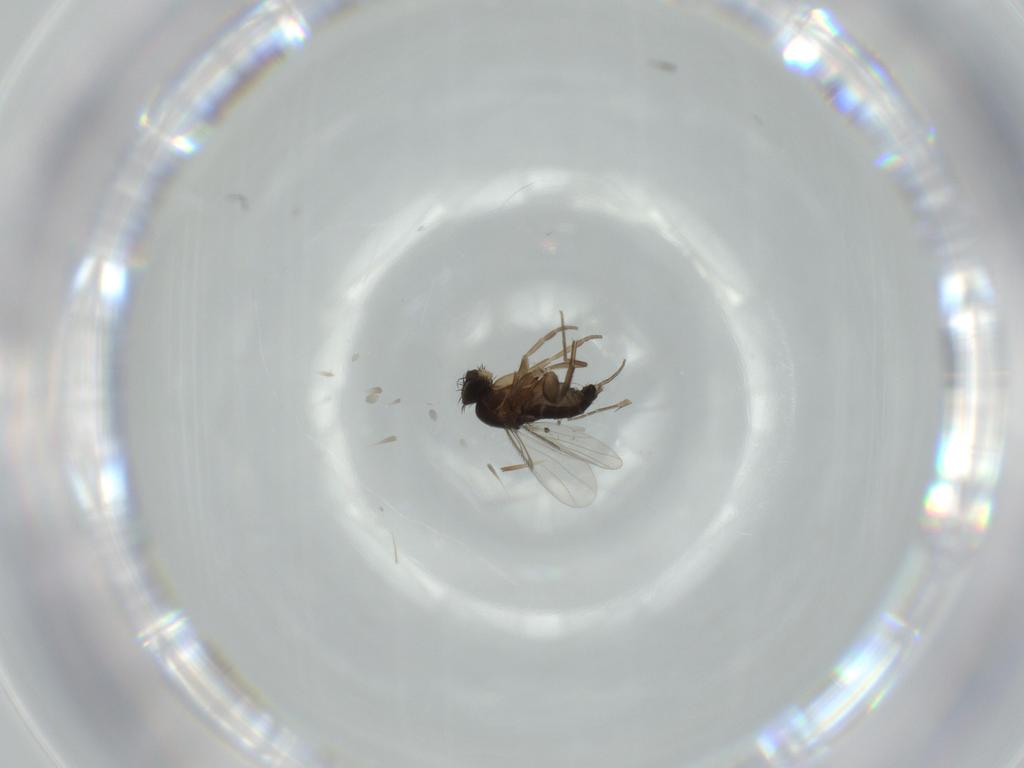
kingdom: Animalia
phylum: Arthropoda
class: Insecta
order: Diptera
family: Phoridae
